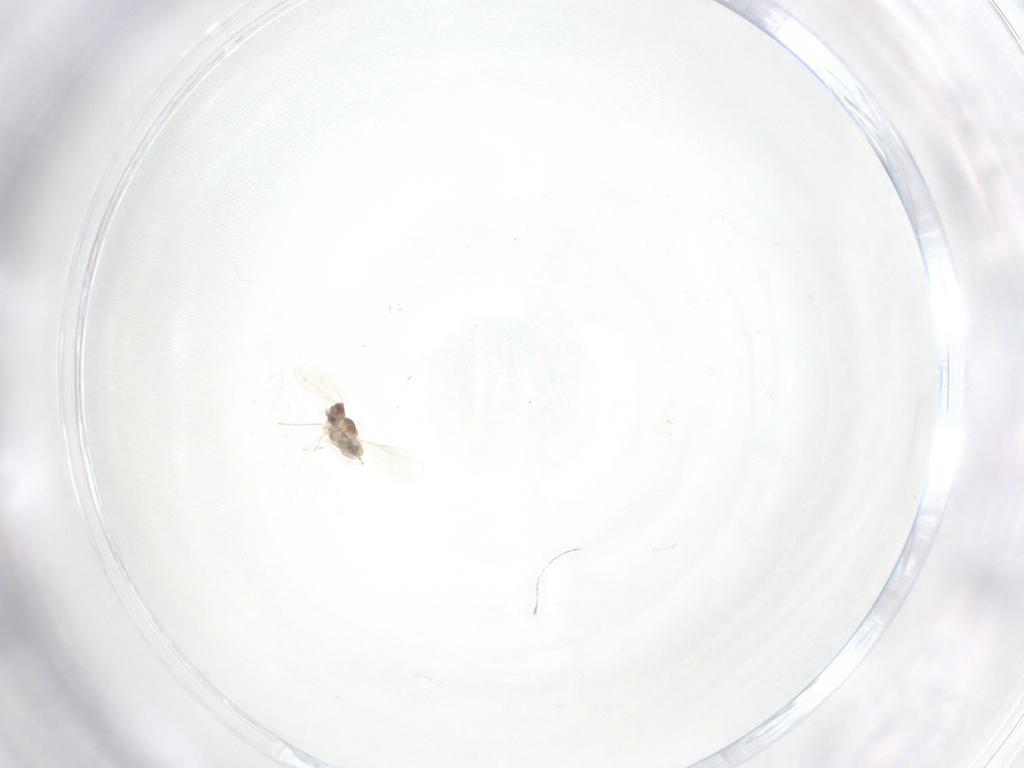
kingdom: Animalia
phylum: Arthropoda
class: Insecta
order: Diptera
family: Cecidomyiidae
